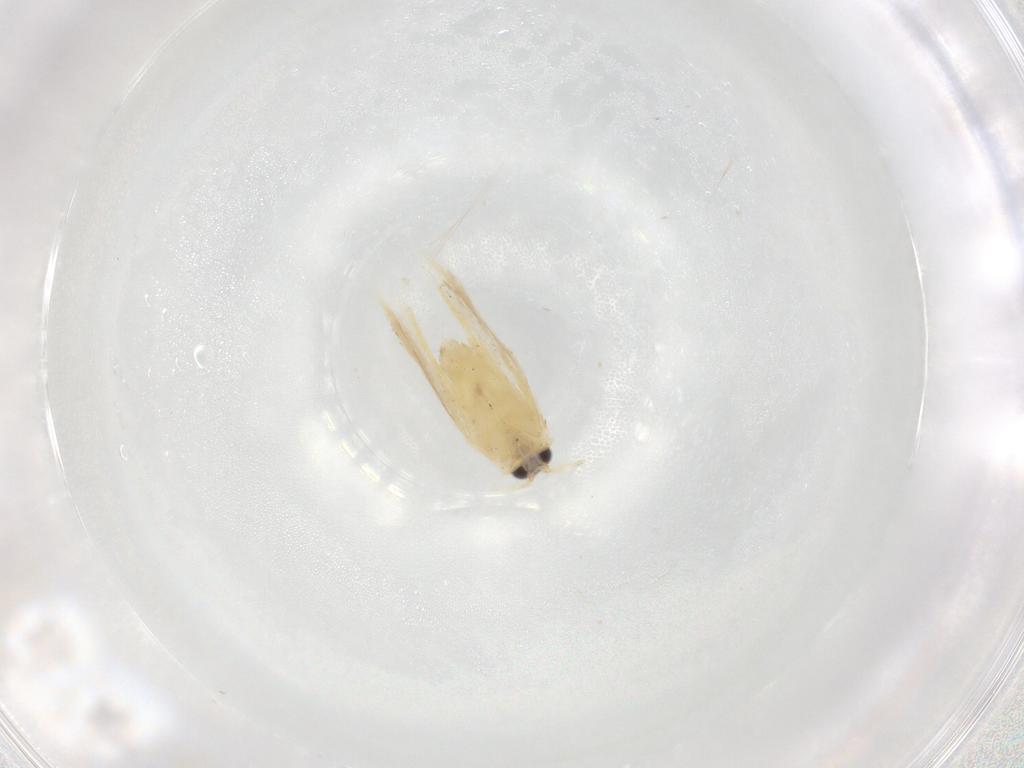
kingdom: Animalia
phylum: Arthropoda
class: Insecta
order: Lepidoptera
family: Nepticulidae
